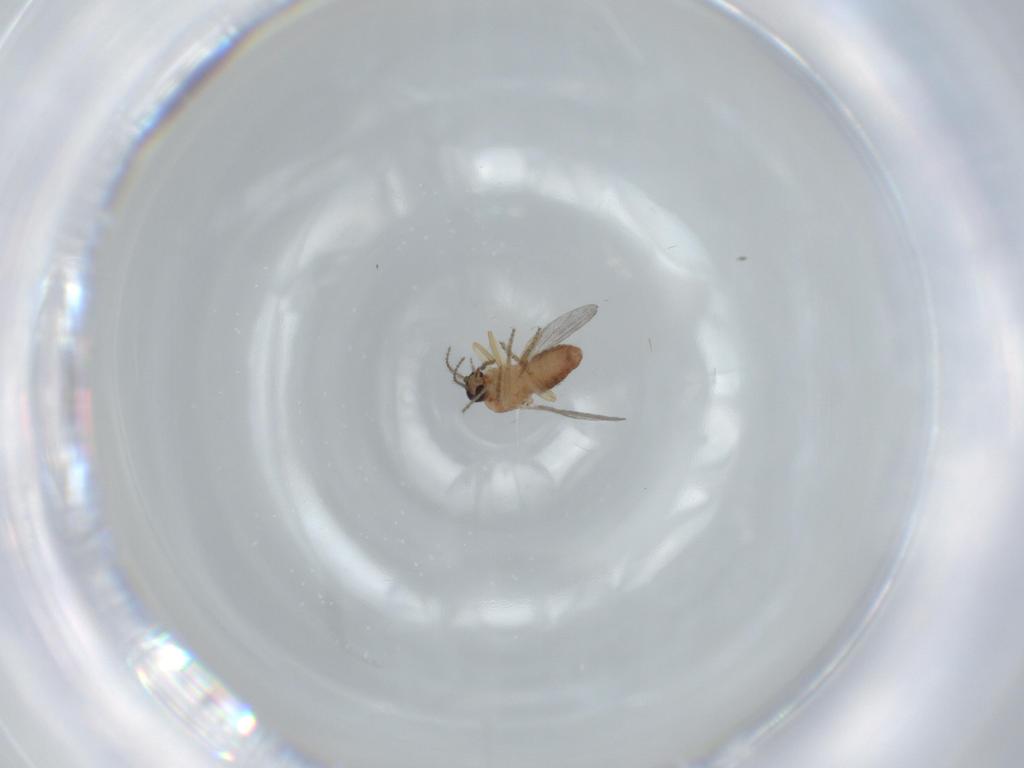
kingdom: Animalia
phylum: Arthropoda
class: Insecta
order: Diptera
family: Ceratopogonidae
